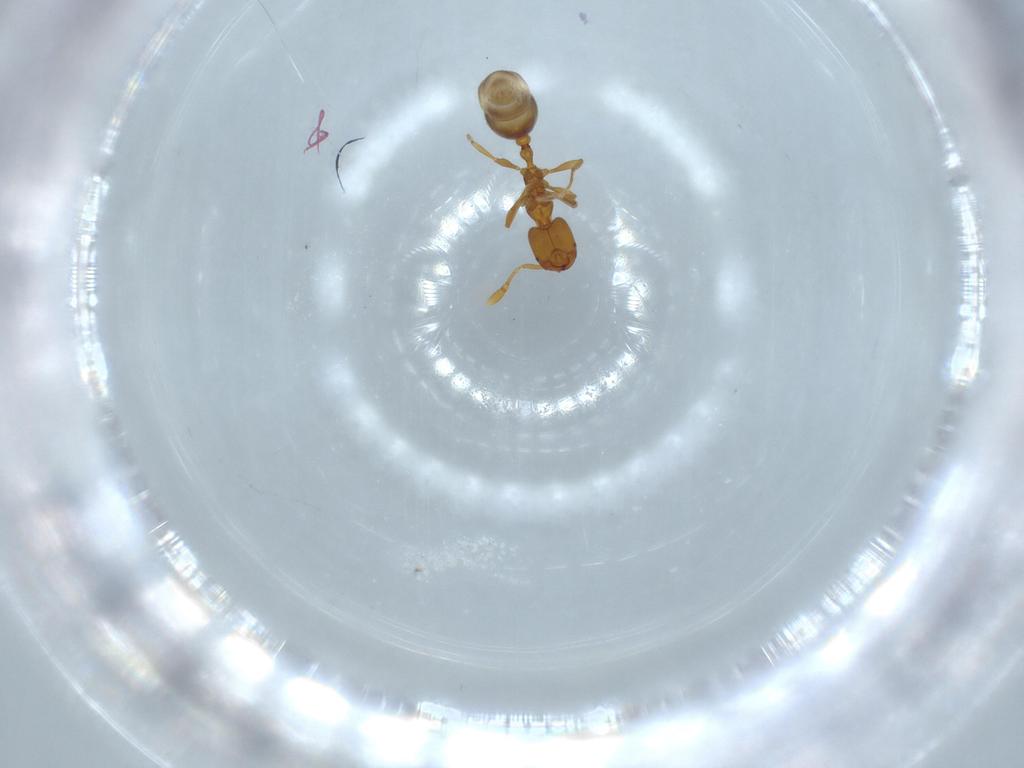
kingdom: Animalia
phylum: Arthropoda
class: Insecta
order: Hymenoptera
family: Formicidae
